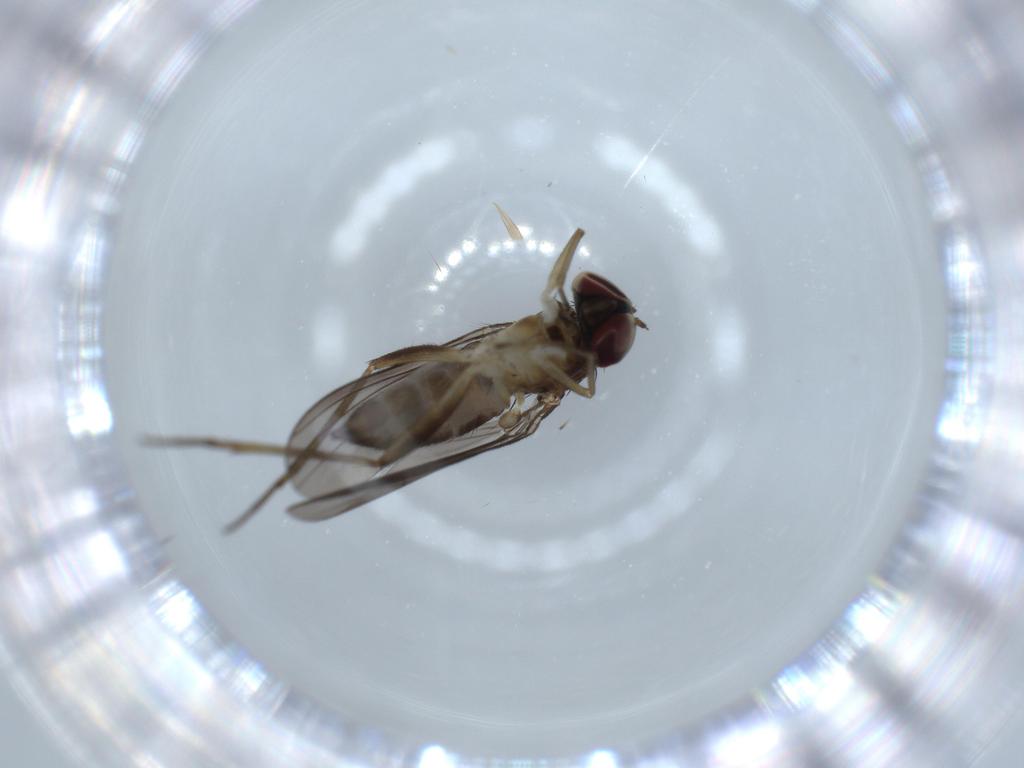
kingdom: Animalia
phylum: Arthropoda
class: Insecta
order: Diptera
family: Dolichopodidae
